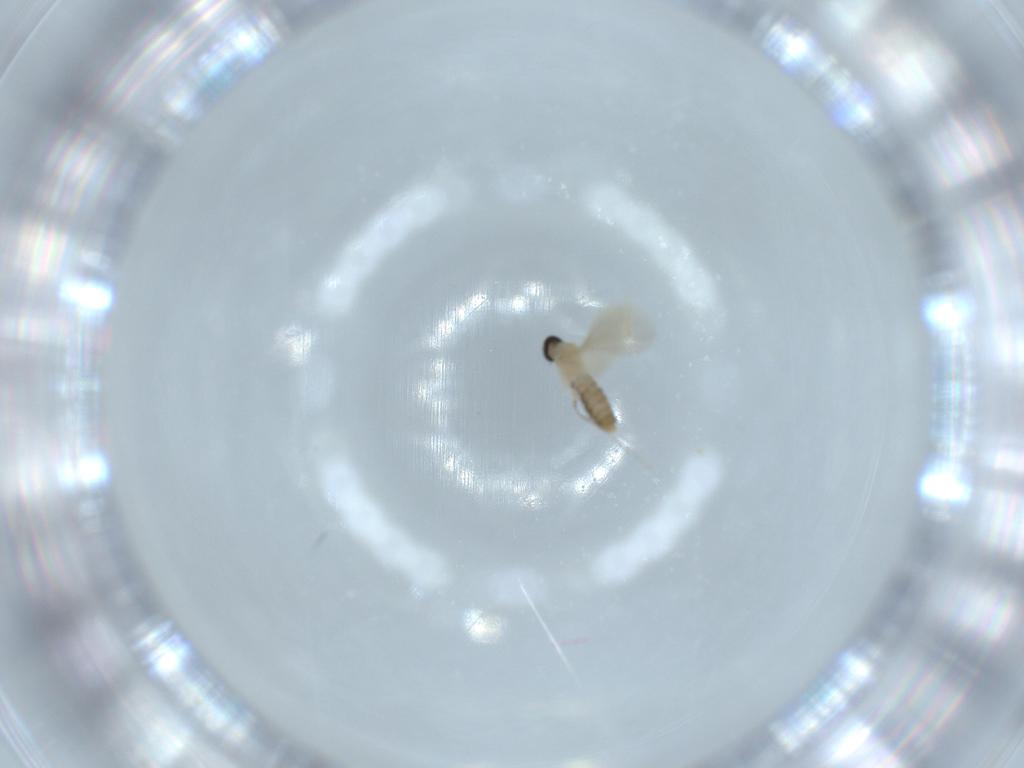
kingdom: Animalia
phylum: Arthropoda
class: Insecta
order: Diptera
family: Cecidomyiidae
